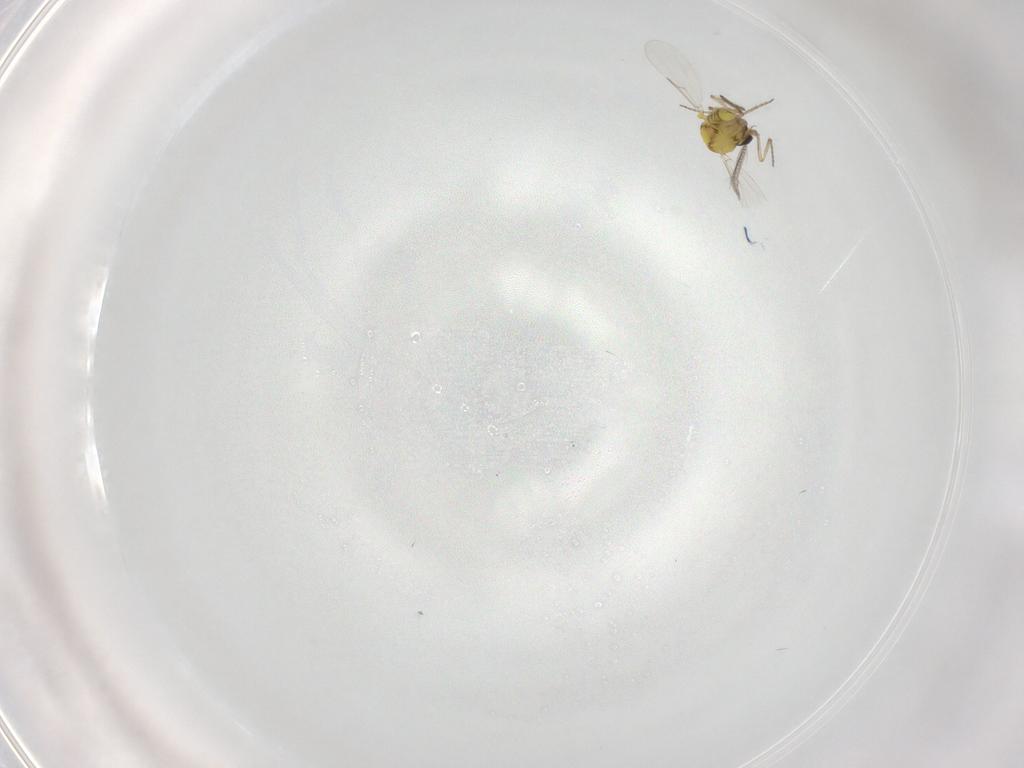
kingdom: Animalia
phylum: Arthropoda
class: Insecta
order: Diptera
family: Ceratopogonidae
